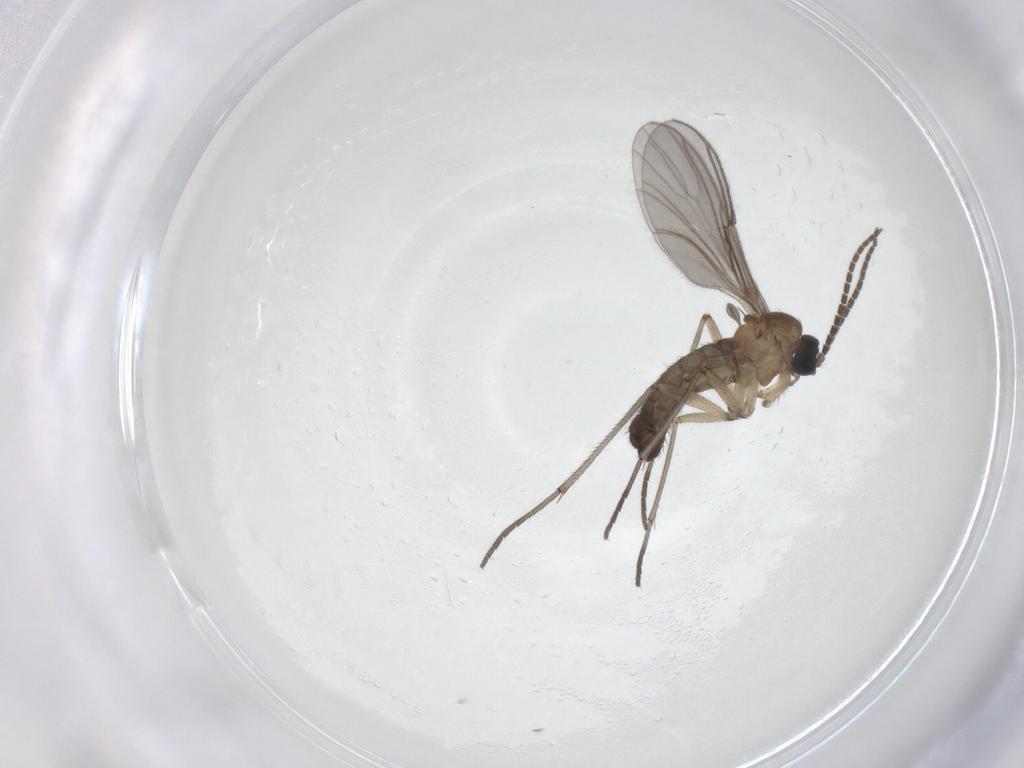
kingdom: Animalia
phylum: Arthropoda
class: Insecta
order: Diptera
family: Sciaridae
